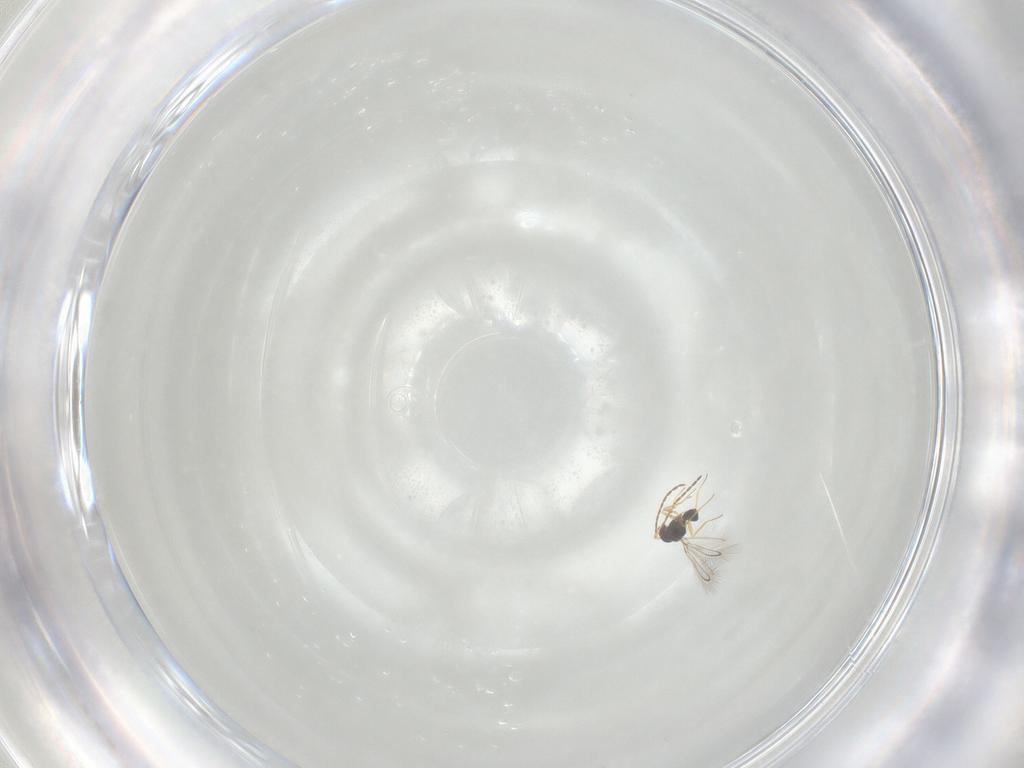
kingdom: Animalia
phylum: Arthropoda
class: Insecta
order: Hymenoptera
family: Mymaridae
